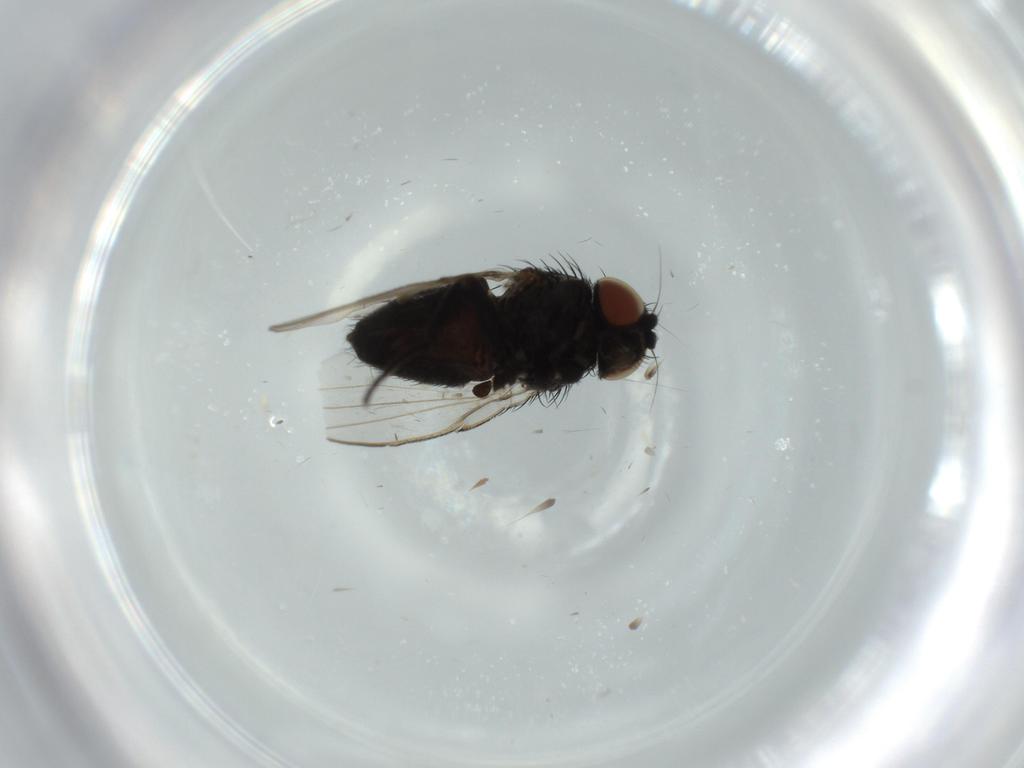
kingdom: Animalia
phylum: Arthropoda
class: Insecta
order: Diptera
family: Milichiidae
